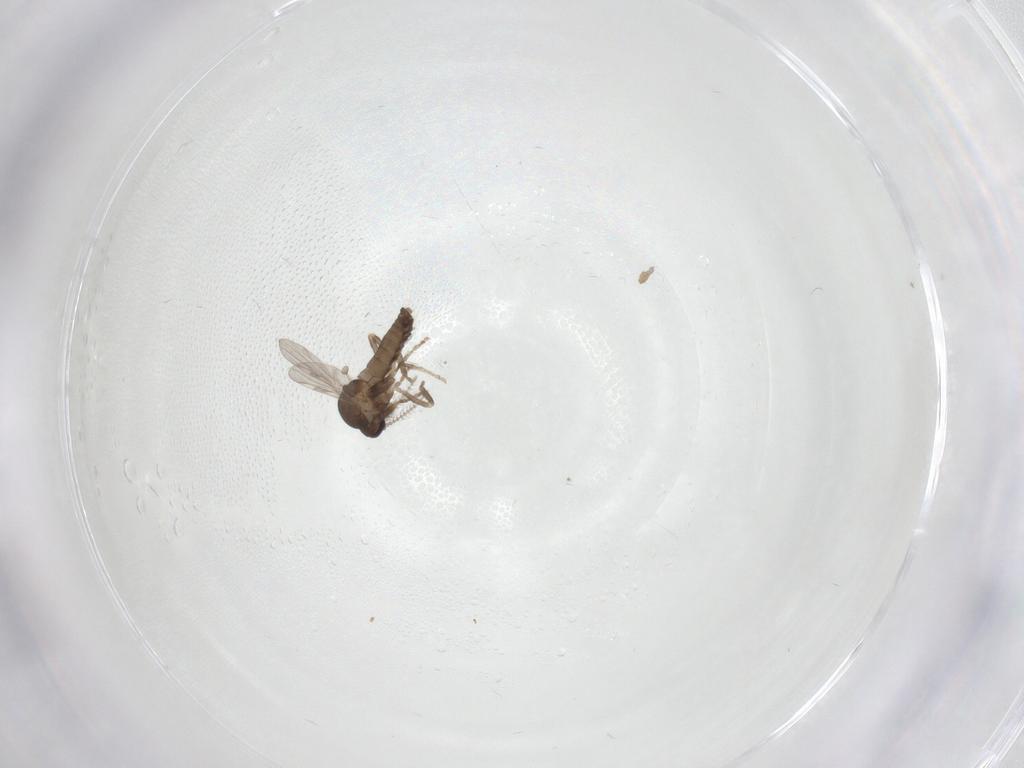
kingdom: Animalia
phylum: Arthropoda
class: Insecta
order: Diptera
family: Ceratopogonidae
